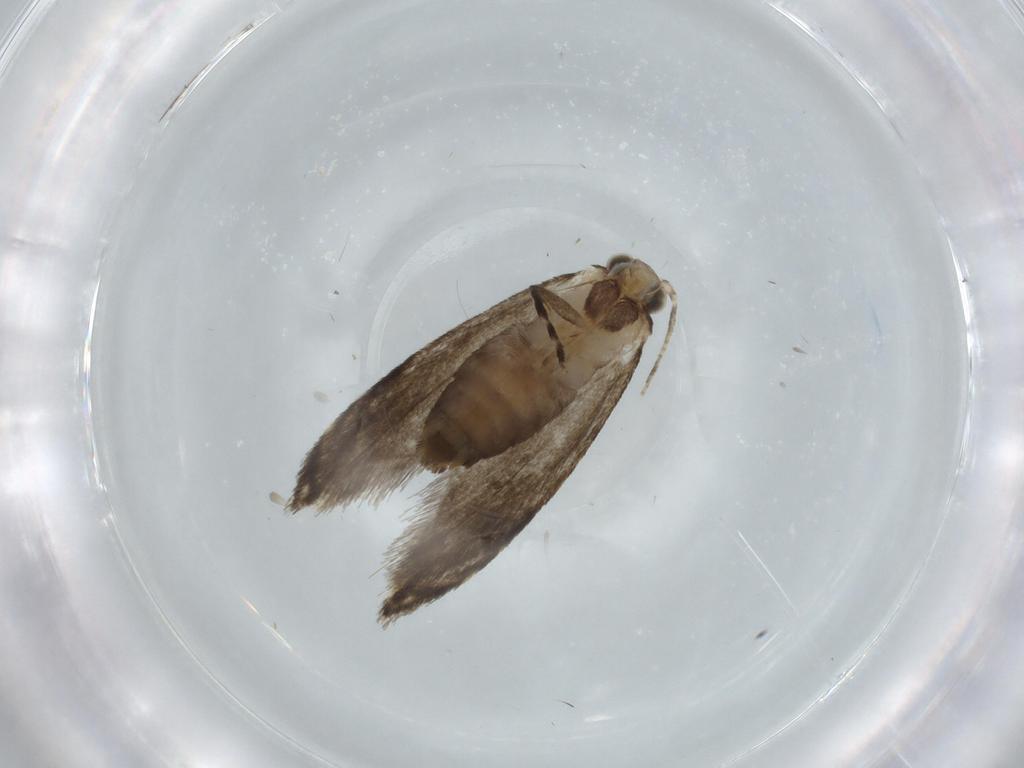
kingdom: Animalia
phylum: Arthropoda
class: Insecta
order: Lepidoptera
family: Tineidae
